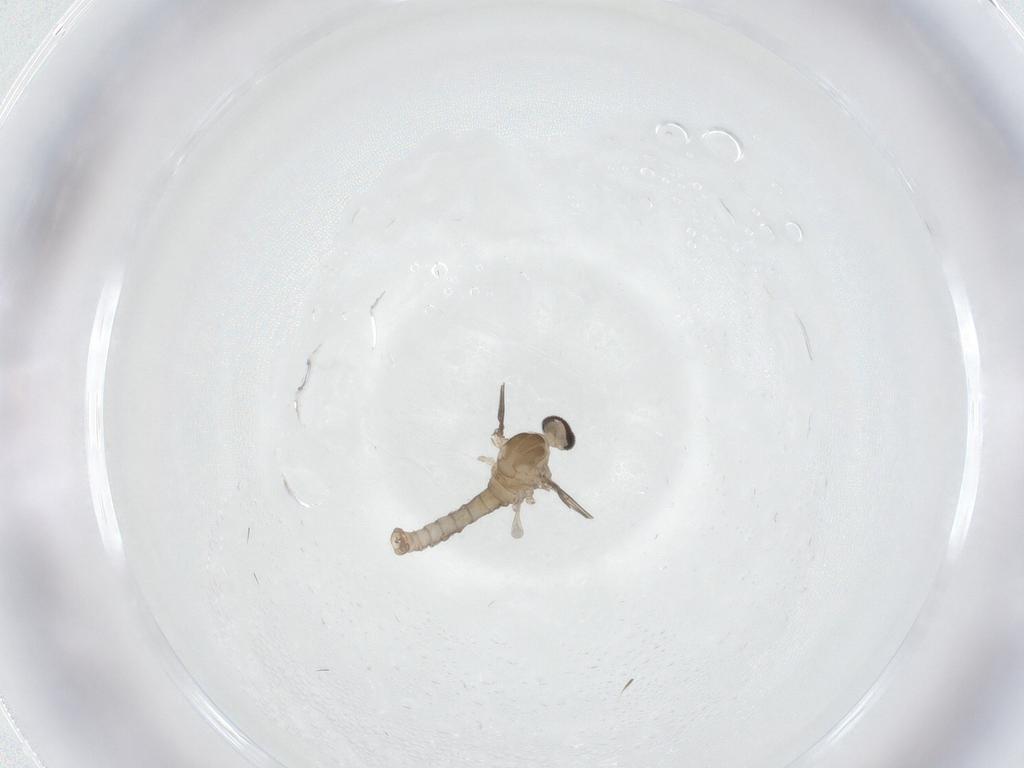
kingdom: Animalia
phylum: Arthropoda
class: Insecta
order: Diptera
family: Cecidomyiidae
